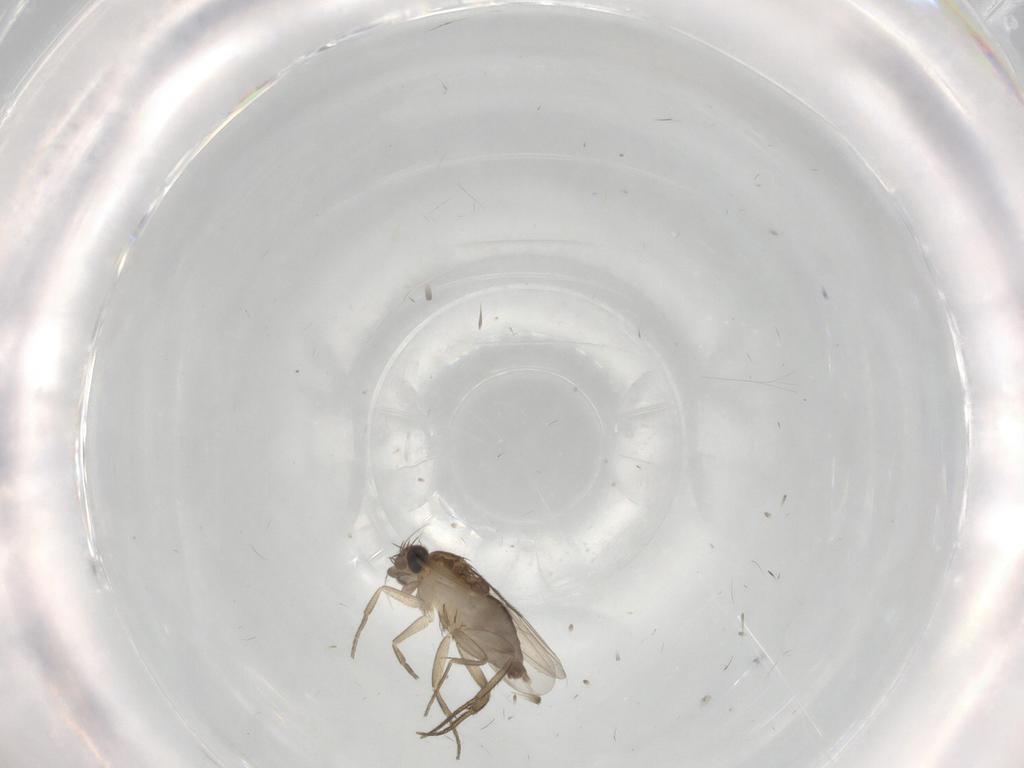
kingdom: Animalia
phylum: Arthropoda
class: Insecta
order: Diptera
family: Phoridae
